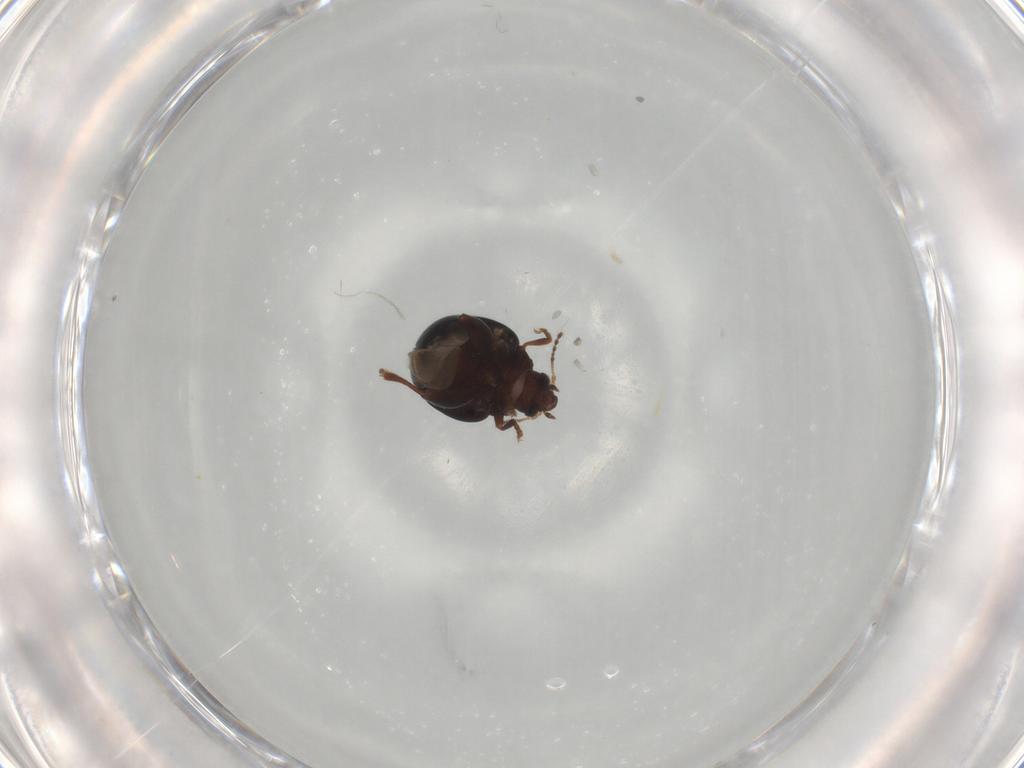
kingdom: Animalia
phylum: Arthropoda
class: Insecta
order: Coleoptera
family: Chrysomelidae
